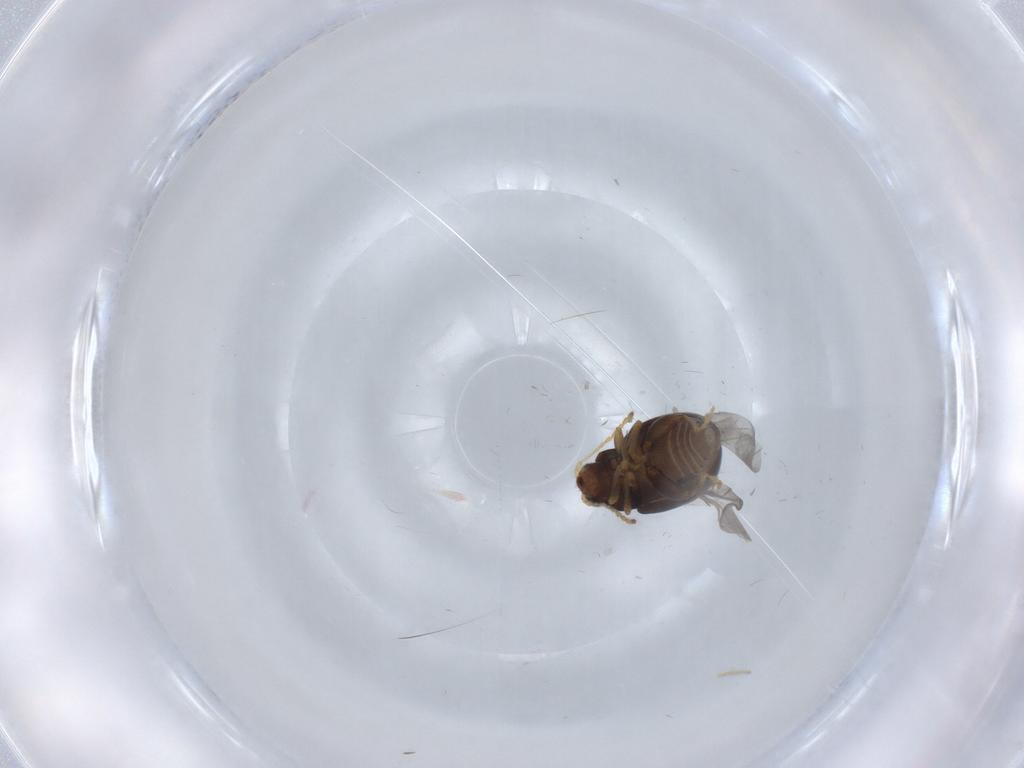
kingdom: Animalia
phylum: Arthropoda
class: Insecta
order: Coleoptera
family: Chrysomelidae
